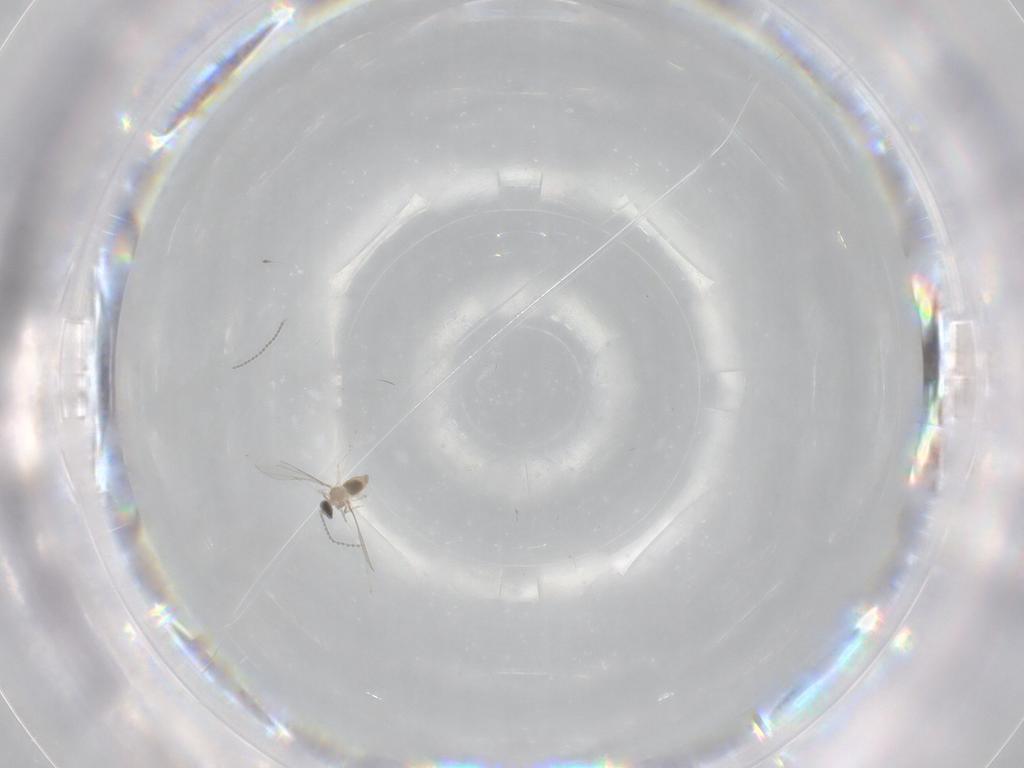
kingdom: Animalia
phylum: Arthropoda
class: Insecta
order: Diptera
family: Cecidomyiidae
